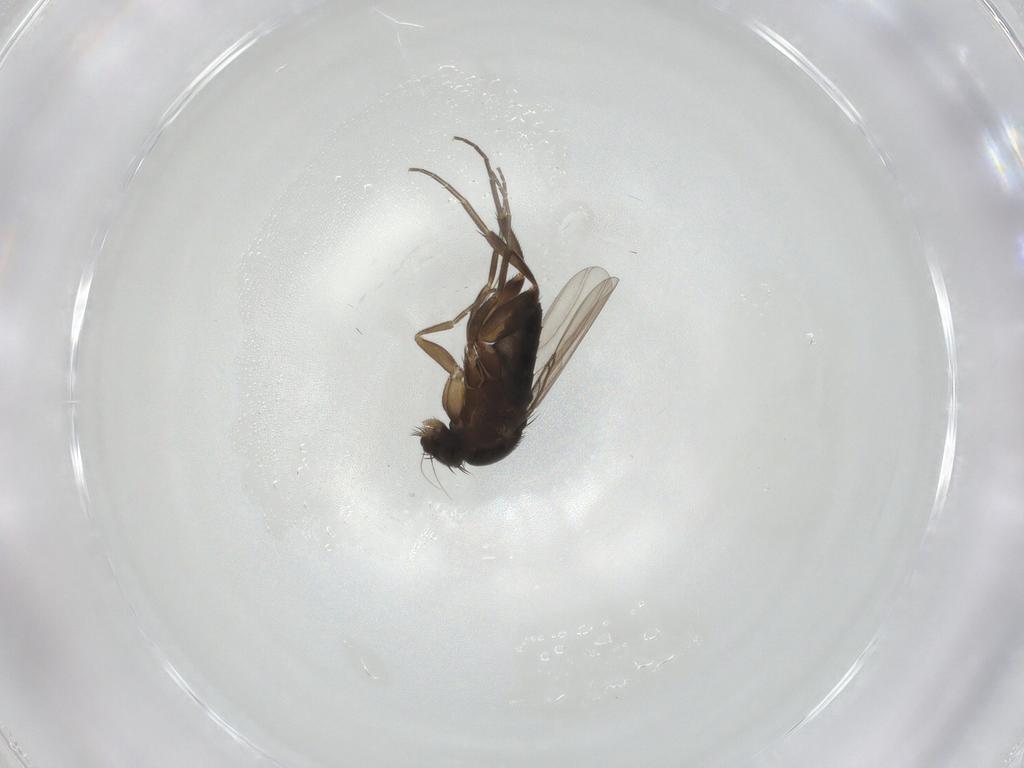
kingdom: Animalia
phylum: Arthropoda
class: Insecta
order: Diptera
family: Phoridae
